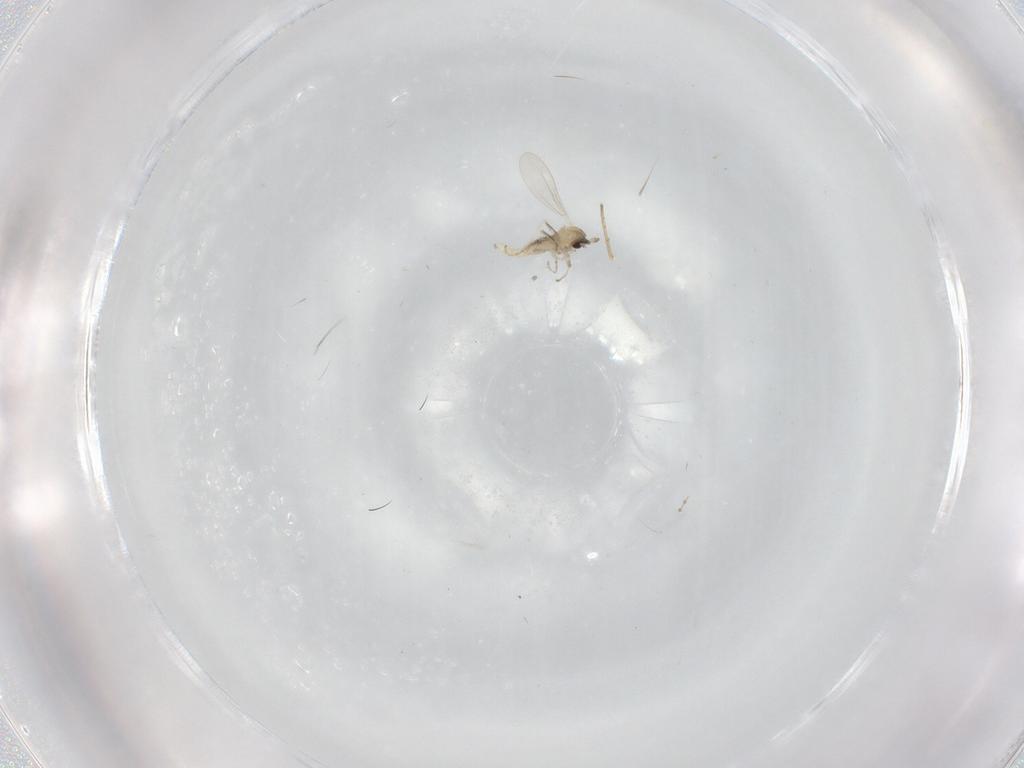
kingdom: Animalia
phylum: Arthropoda
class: Insecta
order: Diptera
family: Cecidomyiidae
